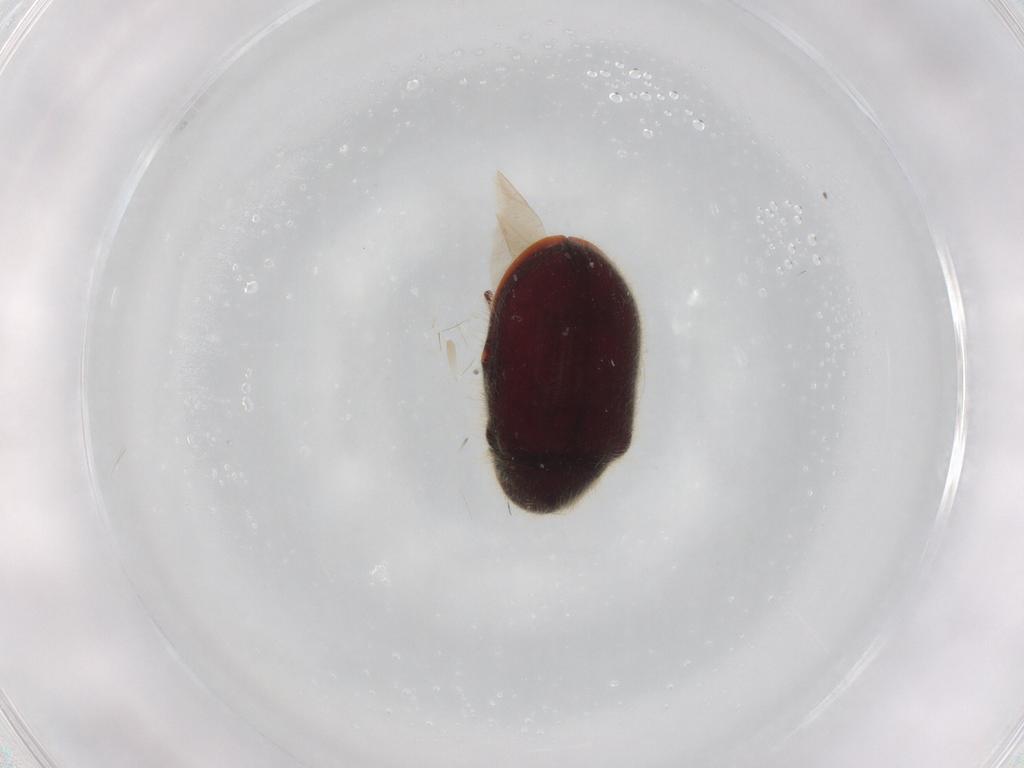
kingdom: Animalia
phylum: Arthropoda
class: Insecta
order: Coleoptera
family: Ptinidae
